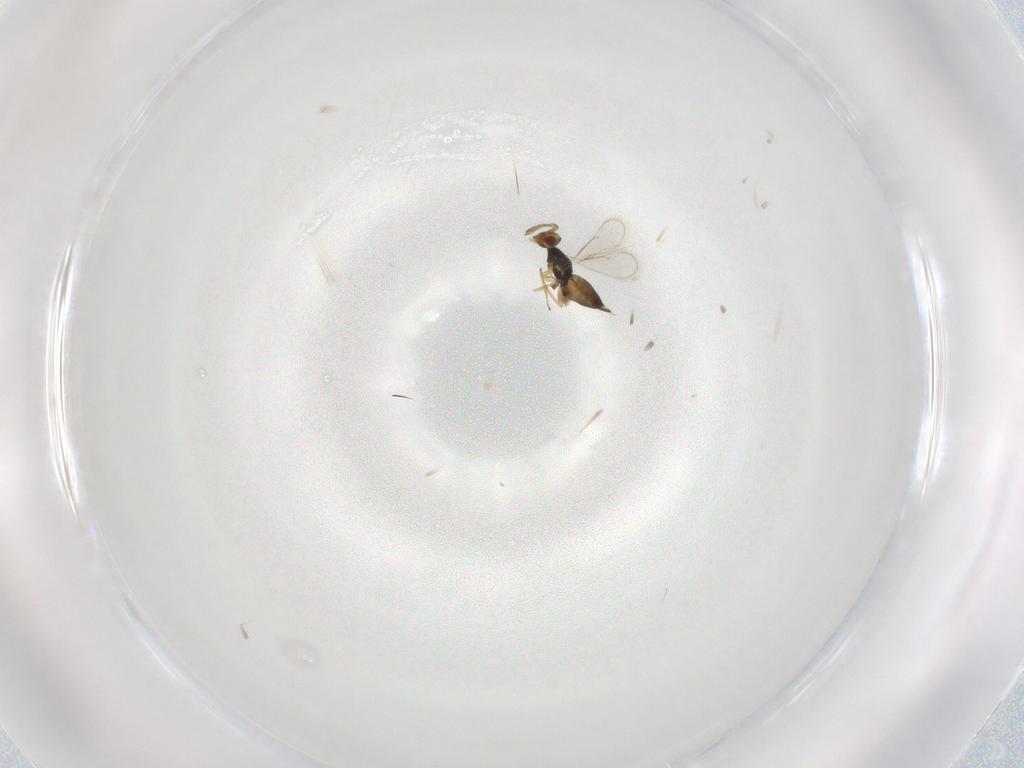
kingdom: Animalia
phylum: Arthropoda
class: Insecta
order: Hymenoptera
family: Eulophidae
